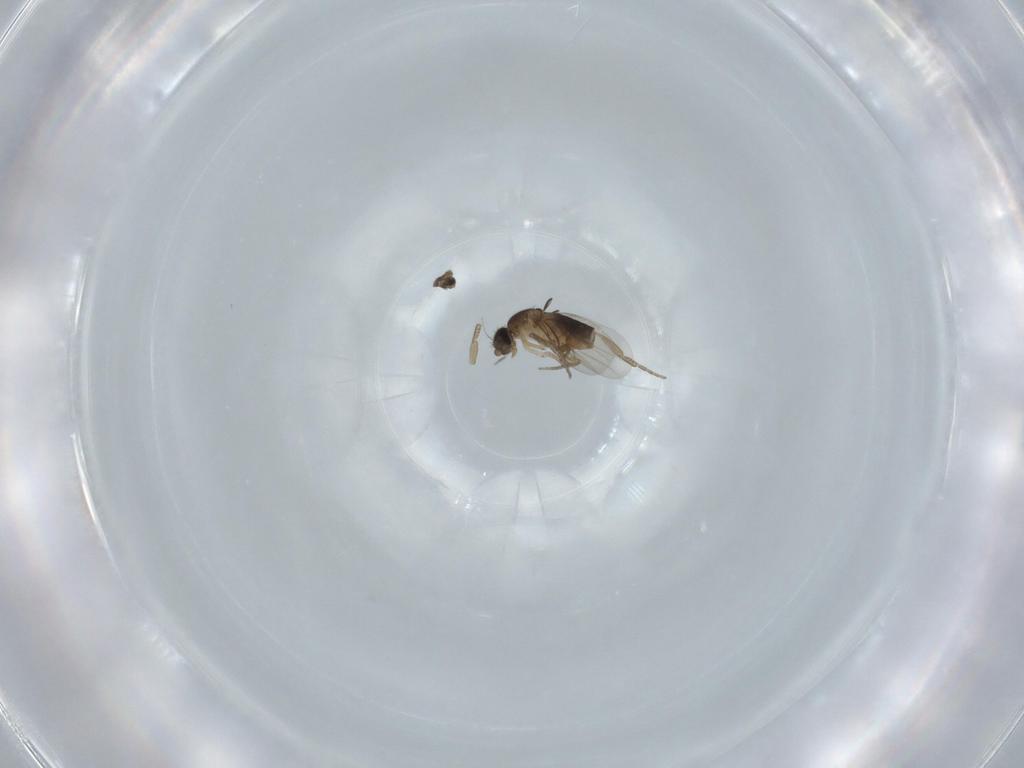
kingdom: Animalia
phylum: Arthropoda
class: Insecta
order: Diptera
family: Phoridae
